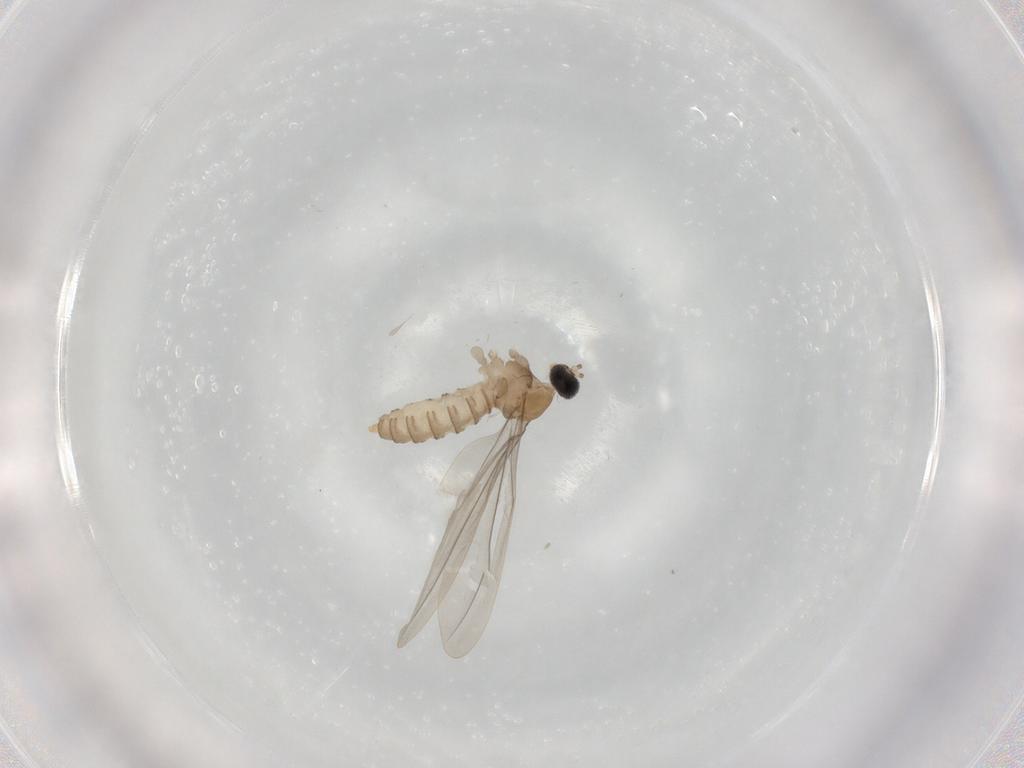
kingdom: Animalia
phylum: Arthropoda
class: Insecta
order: Diptera
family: Cecidomyiidae
